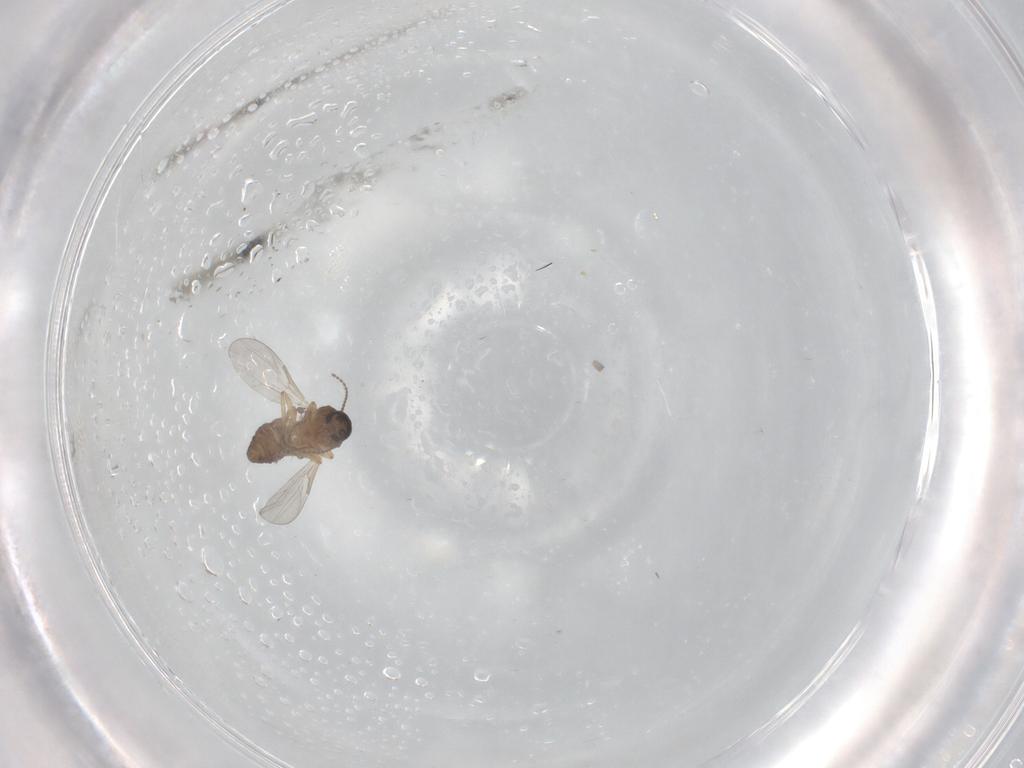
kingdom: Animalia
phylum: Arthropoda
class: Insecta
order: Diptera
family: Ceratopogonidae
